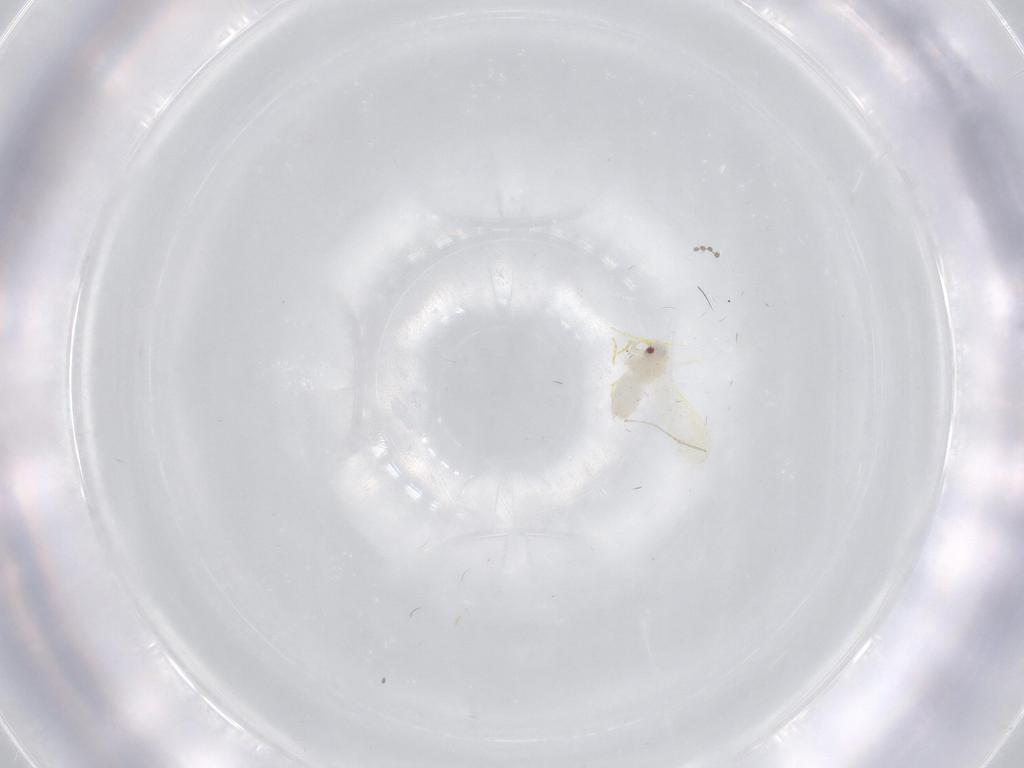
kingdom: Animalia
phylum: Arthropoda
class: Insecta
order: Hemiptera
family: Aleyrodidae
